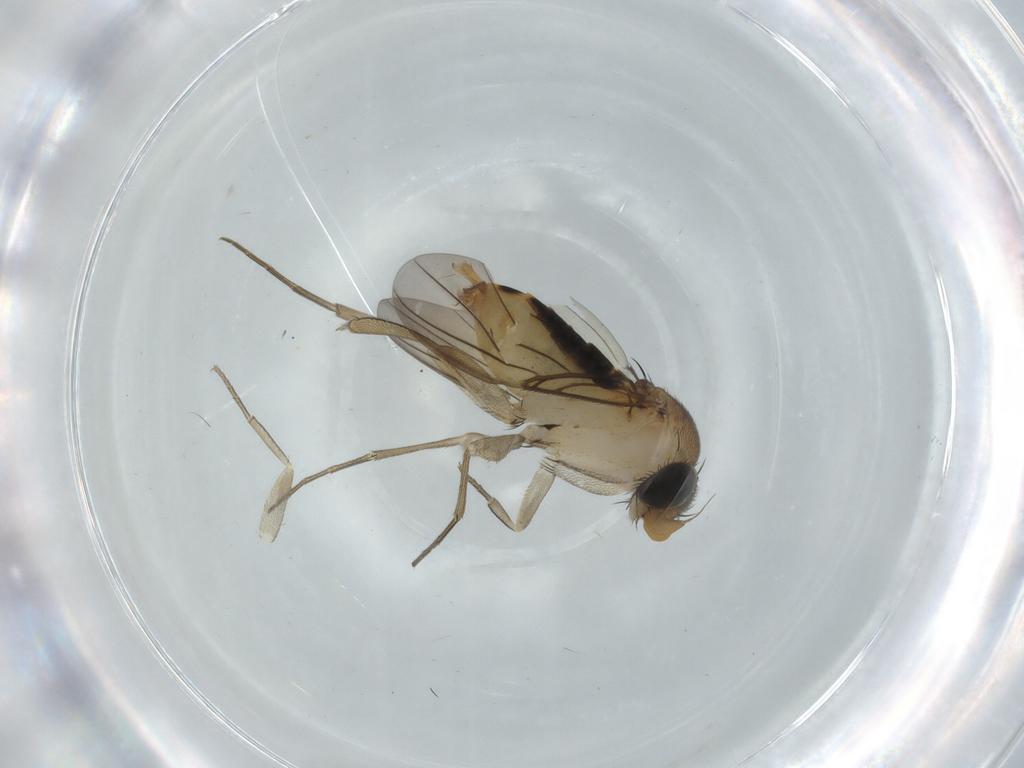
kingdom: Animalia
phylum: Arthropoda
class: Insecta
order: Diptera
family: Phoridae
